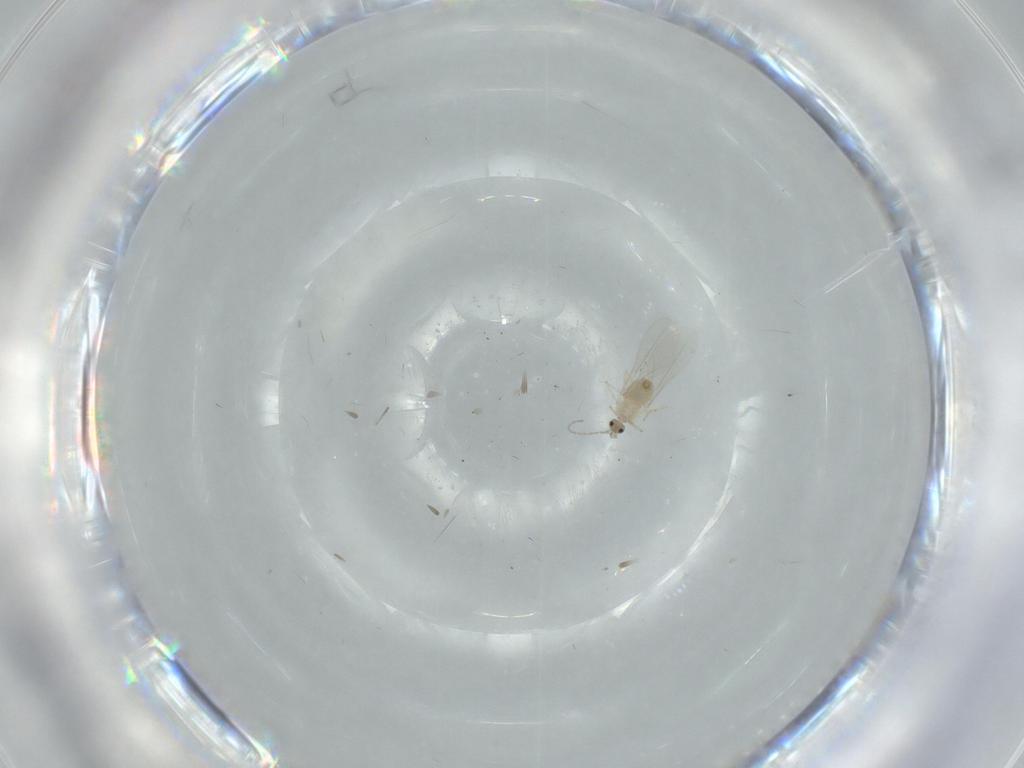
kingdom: Animalia
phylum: Arthropoda
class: Insecta
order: Diptera
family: Cecidomyiidae
